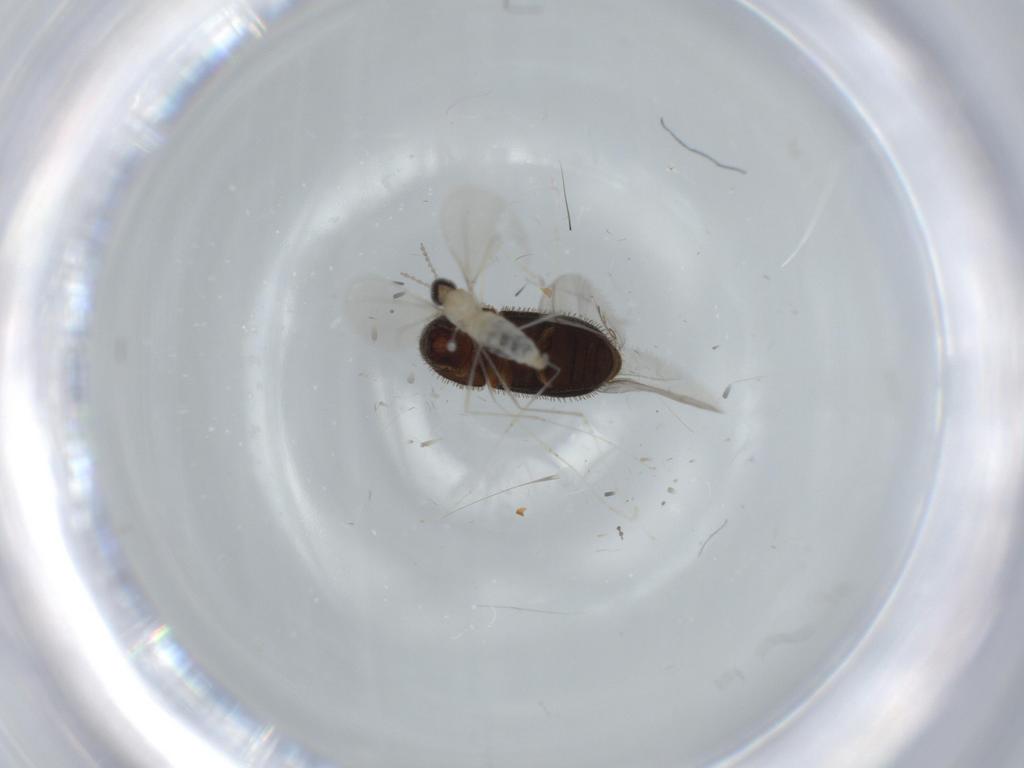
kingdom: Animalia
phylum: Arthropoda
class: Insecta
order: Diptera
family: Sciaridae
